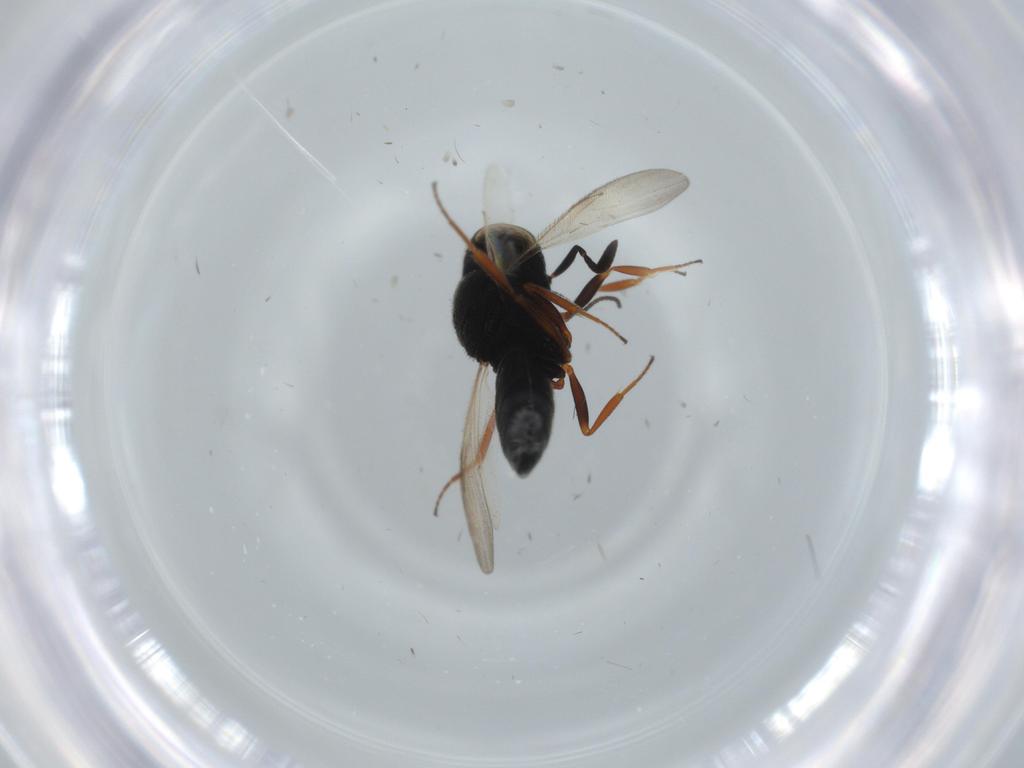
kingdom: Animalia
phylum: Arthropoda
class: Insecta
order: Hymenoptera
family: Scelionidae
